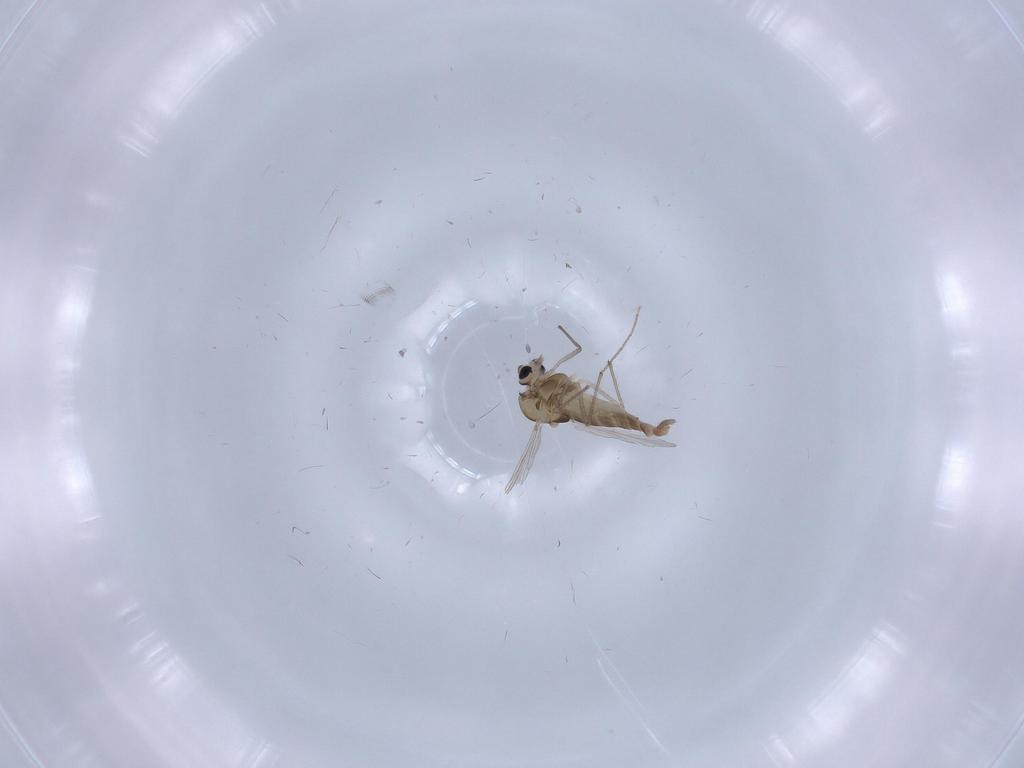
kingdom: Animalia
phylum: Arthropoda
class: Insecta
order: Diptera
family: Chironomidae
